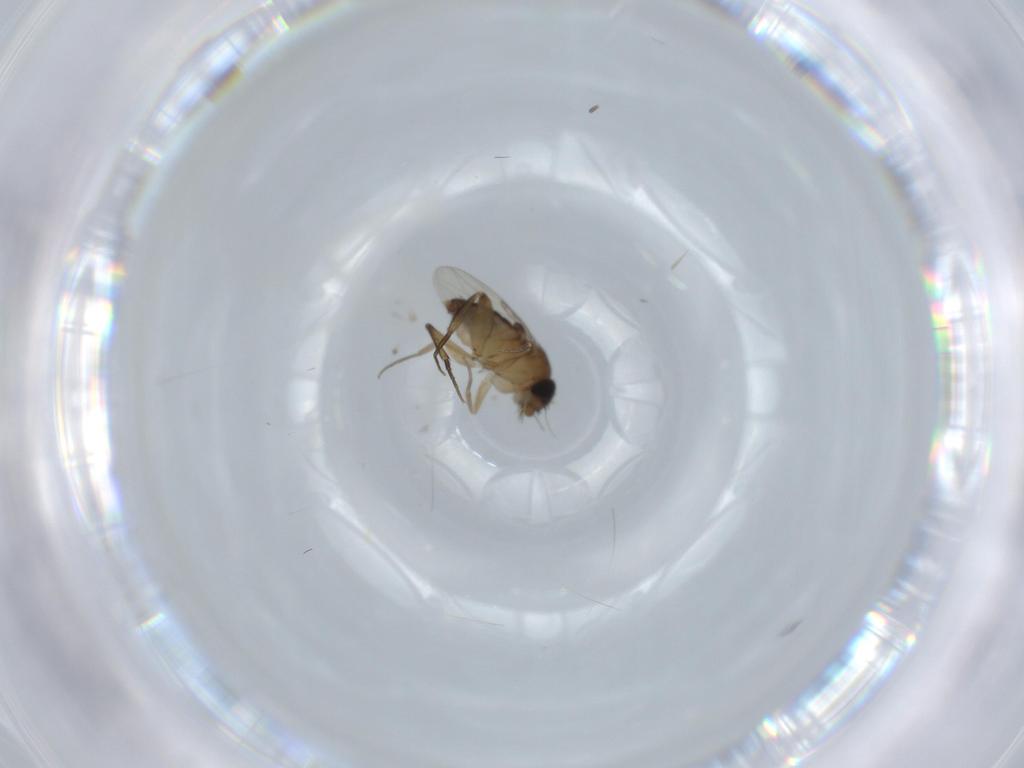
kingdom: Animalia
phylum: Arthropoda
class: Insecta
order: Diptera
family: Phoridae
